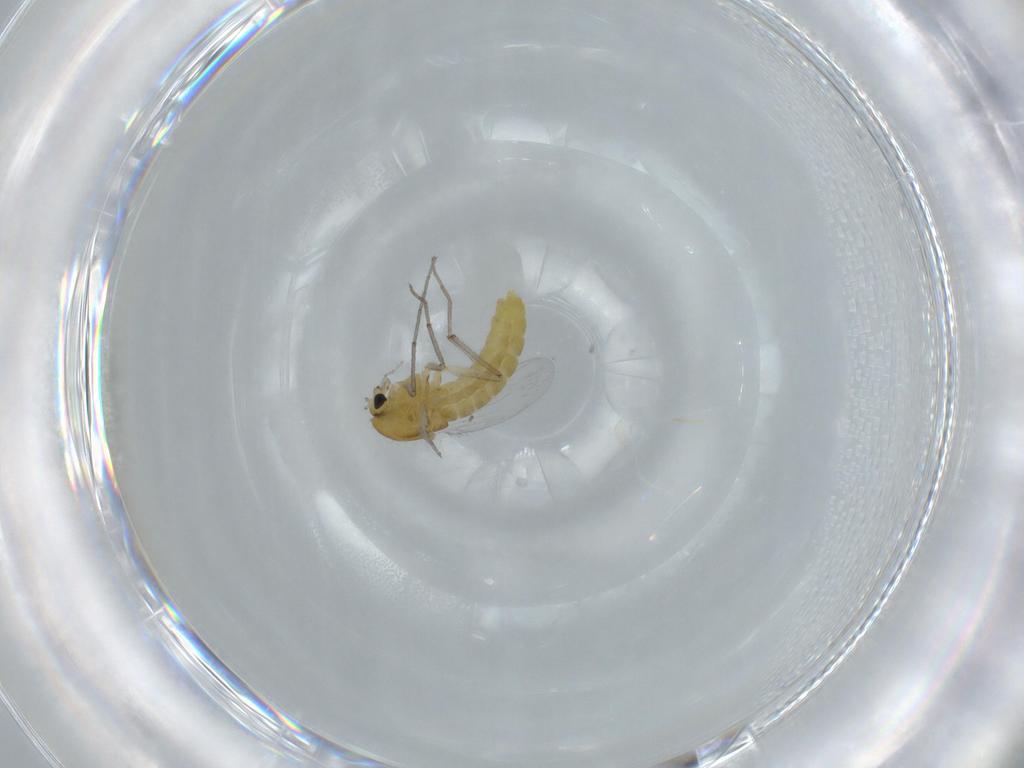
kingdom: Animalia
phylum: Arthropoda
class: Insecta
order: Diptera
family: Chironomidae
